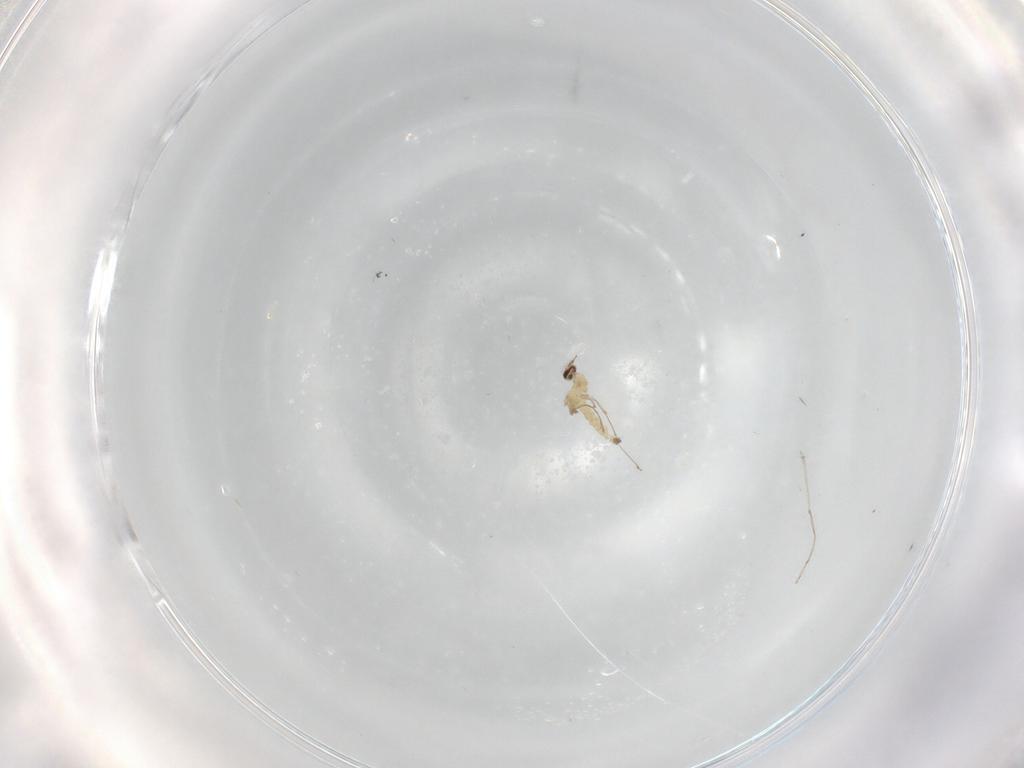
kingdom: Animalia
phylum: Arthropoda
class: Insecta
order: Diptera
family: Cecidomyiidae
